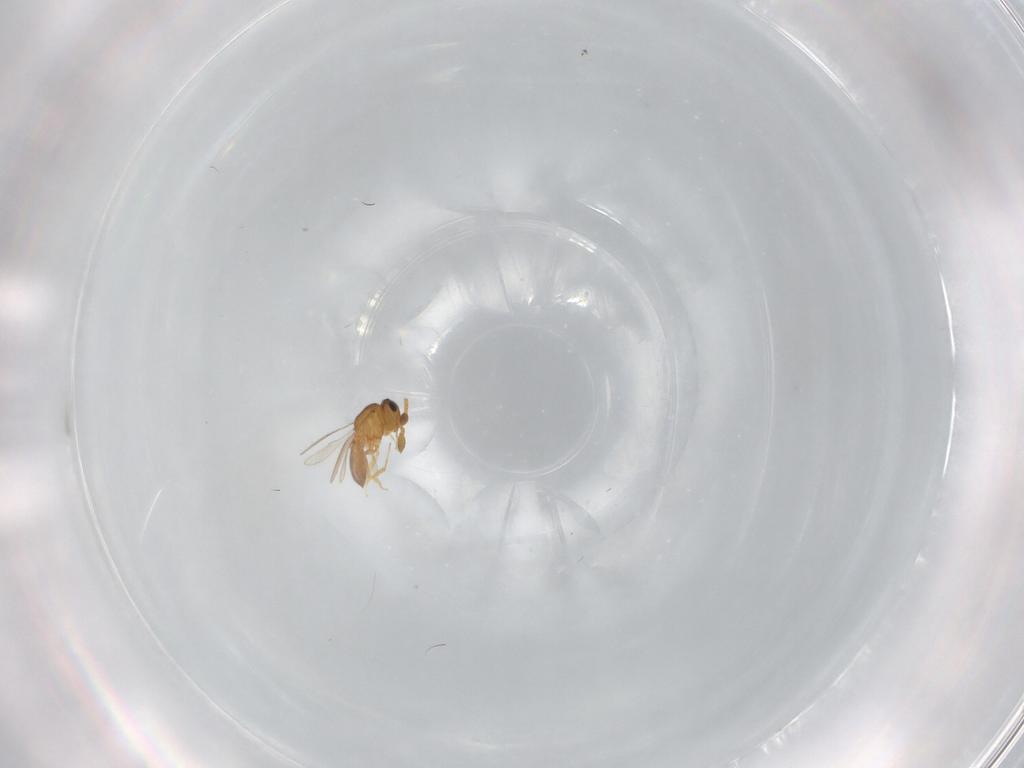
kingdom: Animalia
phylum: Arthropoda
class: Insecta
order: Hymenoptera
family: Scelionidae
